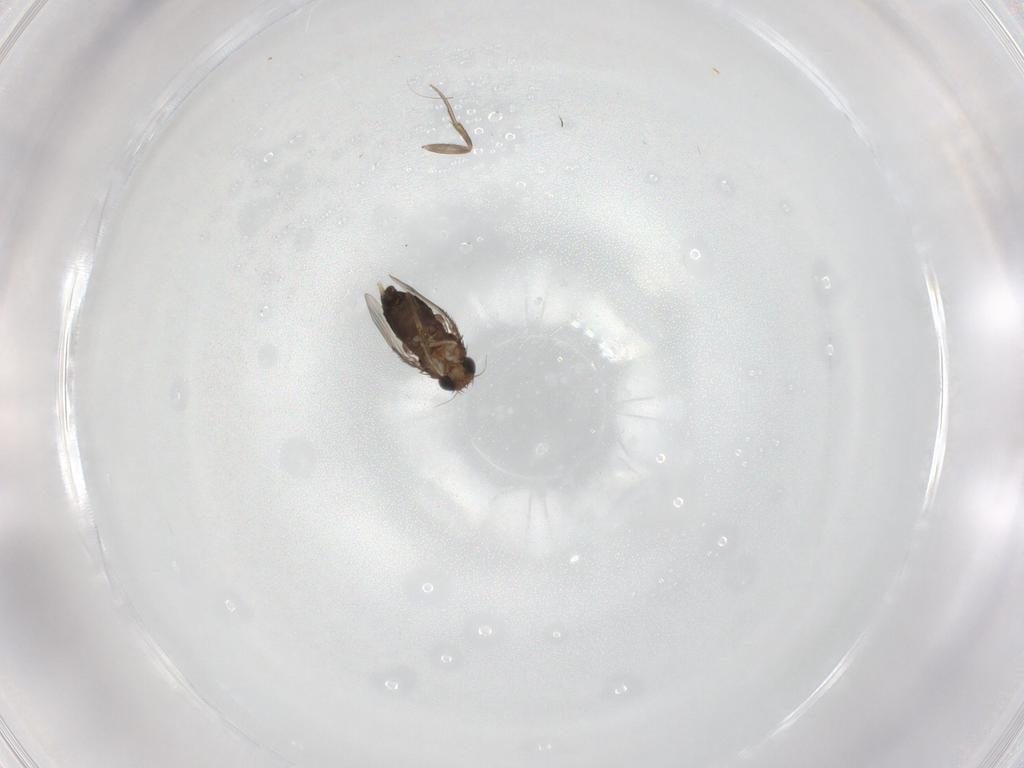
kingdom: Animalia
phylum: Arthropoda
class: Insecta
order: Diptera
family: Phoridae
